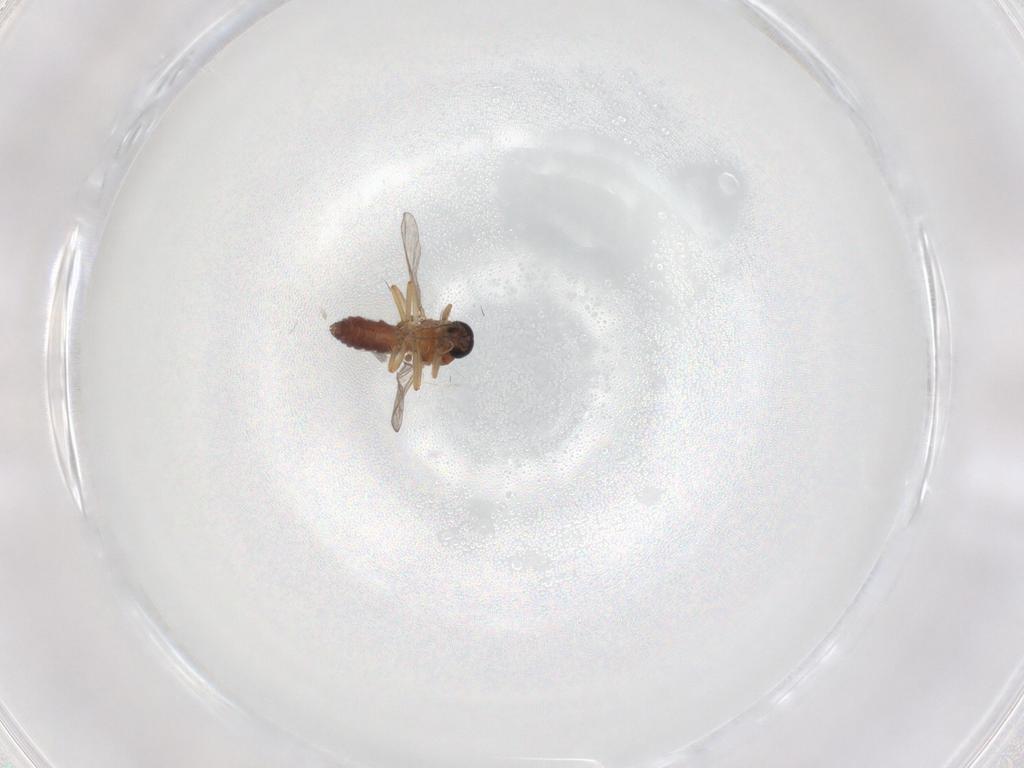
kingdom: Animalia
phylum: Arthropoda
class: Insecta
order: Diptera
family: Ceratopogonidae
